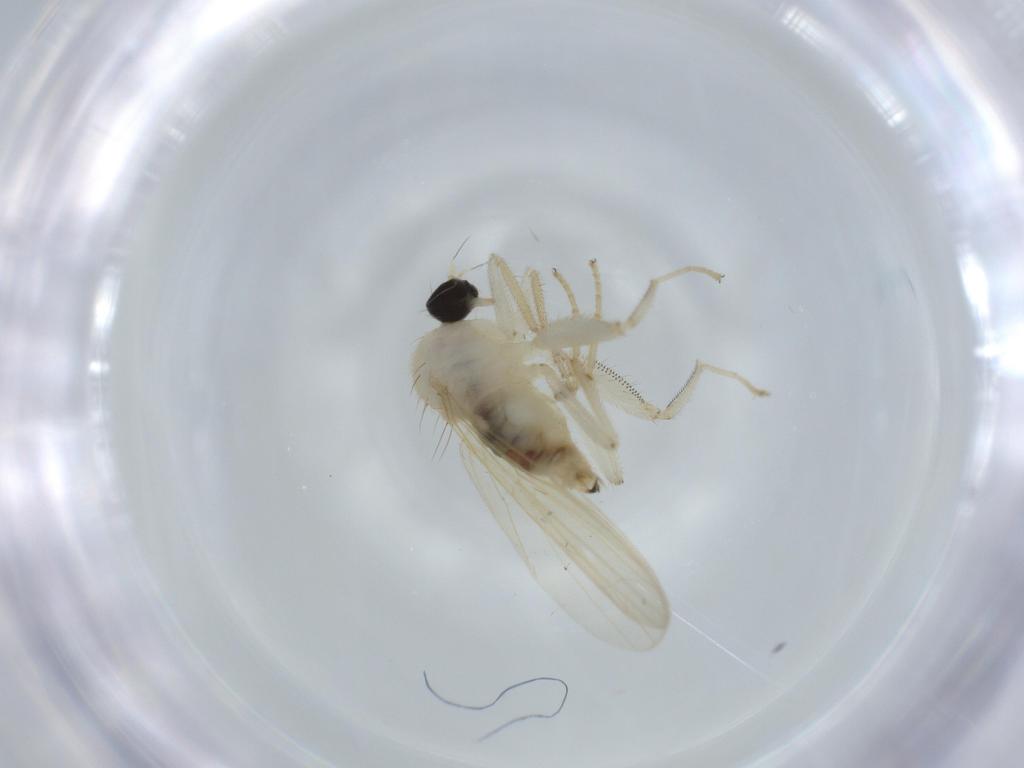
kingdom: Animalia
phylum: Arthropoda
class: Insecta
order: Diptera
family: Hybotidae
